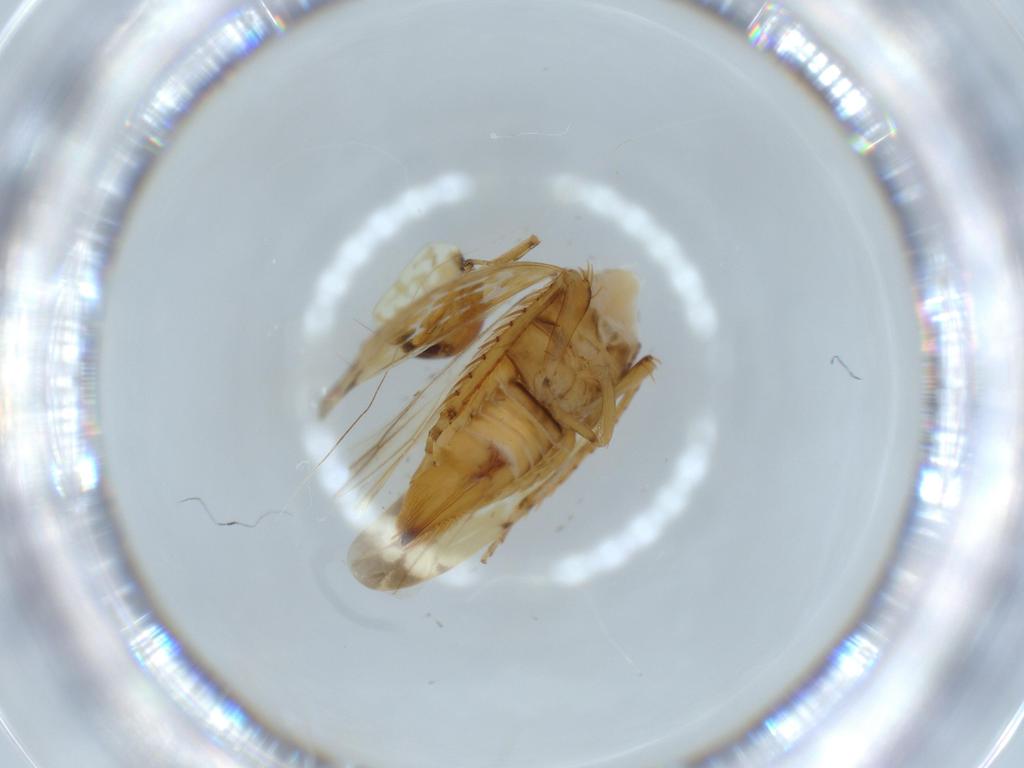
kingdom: Animalia
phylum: Arthropoda
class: Insecta
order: Hemiptera
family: Cicadellidae
